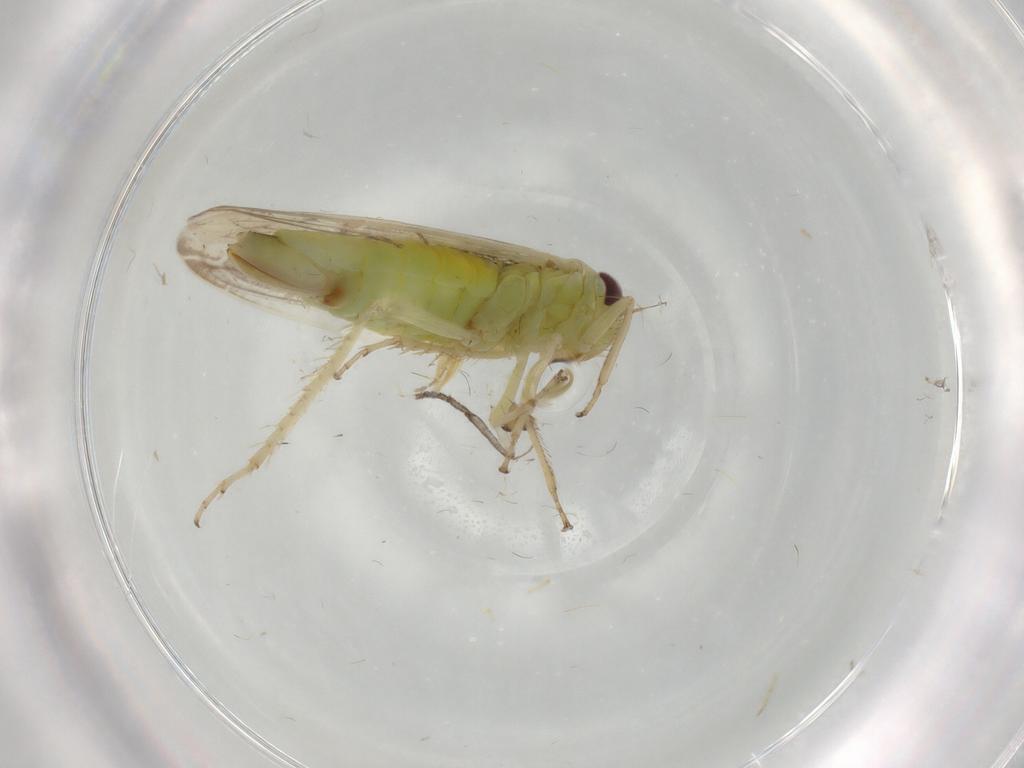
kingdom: Animalia
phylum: Arthropoda
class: Insecta
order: Hemiptera
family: Cicadellidae
